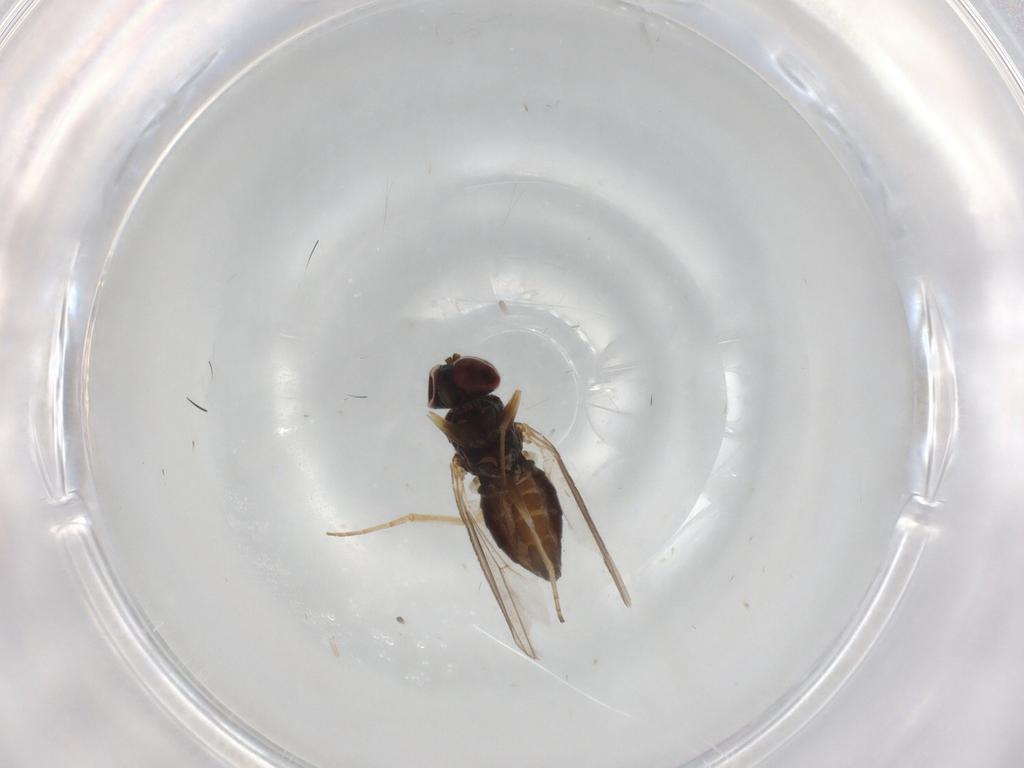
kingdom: Animalia
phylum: Arthropoda
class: Insecta
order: Diptera
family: Dolichopodidae
